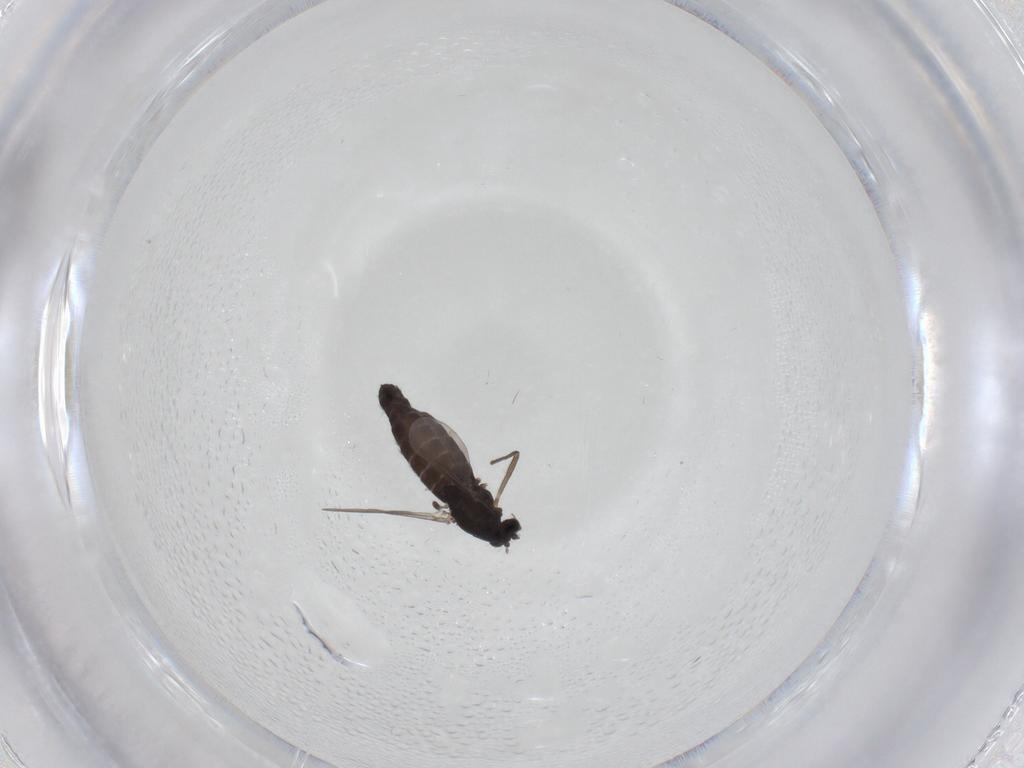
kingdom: Animalia
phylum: Arthropoda
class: Insecta
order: Diptera
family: Chironomidae
